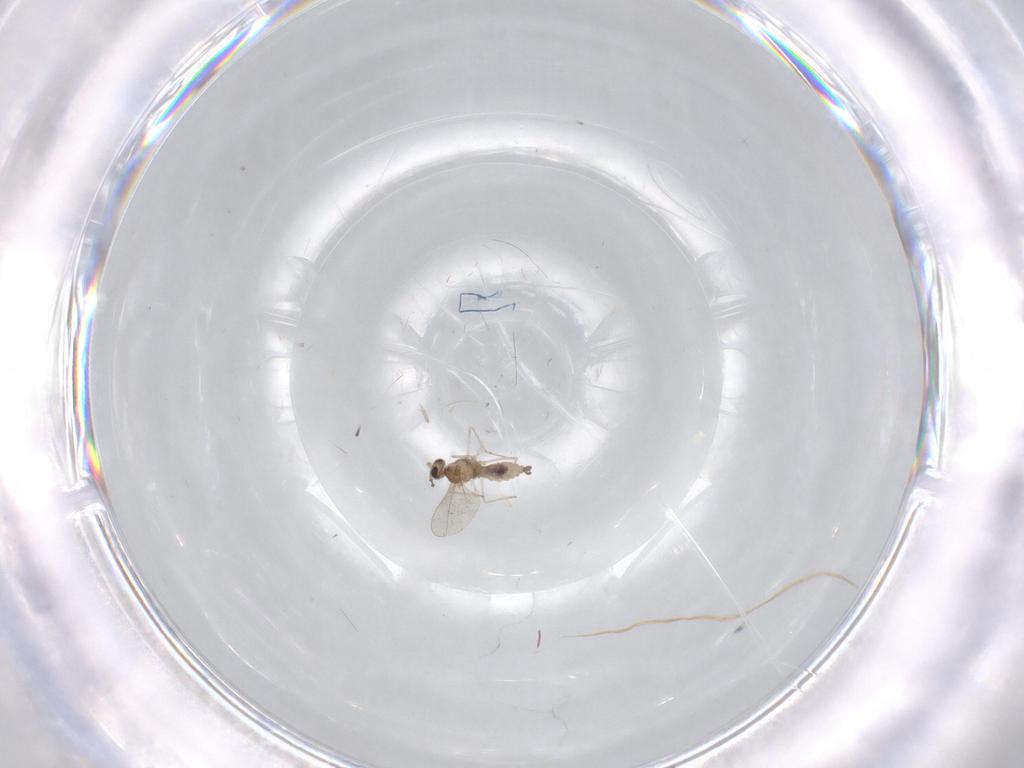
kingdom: Animalia
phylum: Arthropoda
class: Insecta
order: Diptera
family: Cecidomyiidae
